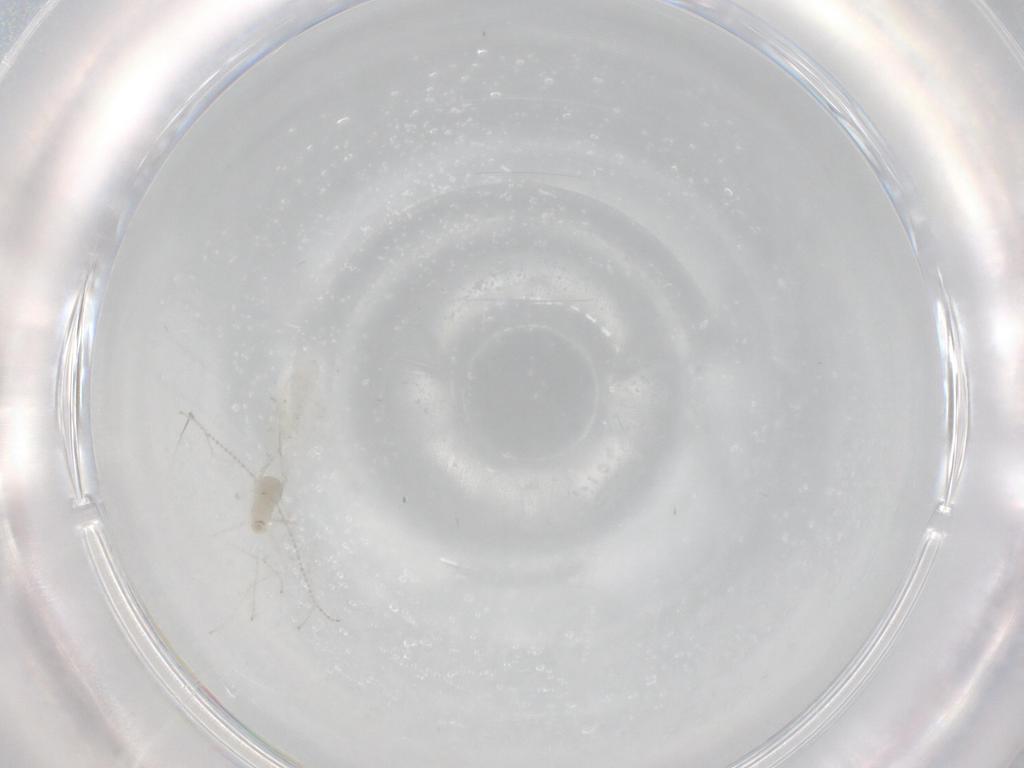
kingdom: Animalia
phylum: Arthropoda
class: Insecta
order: Diptera
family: Cecidomyiidae
